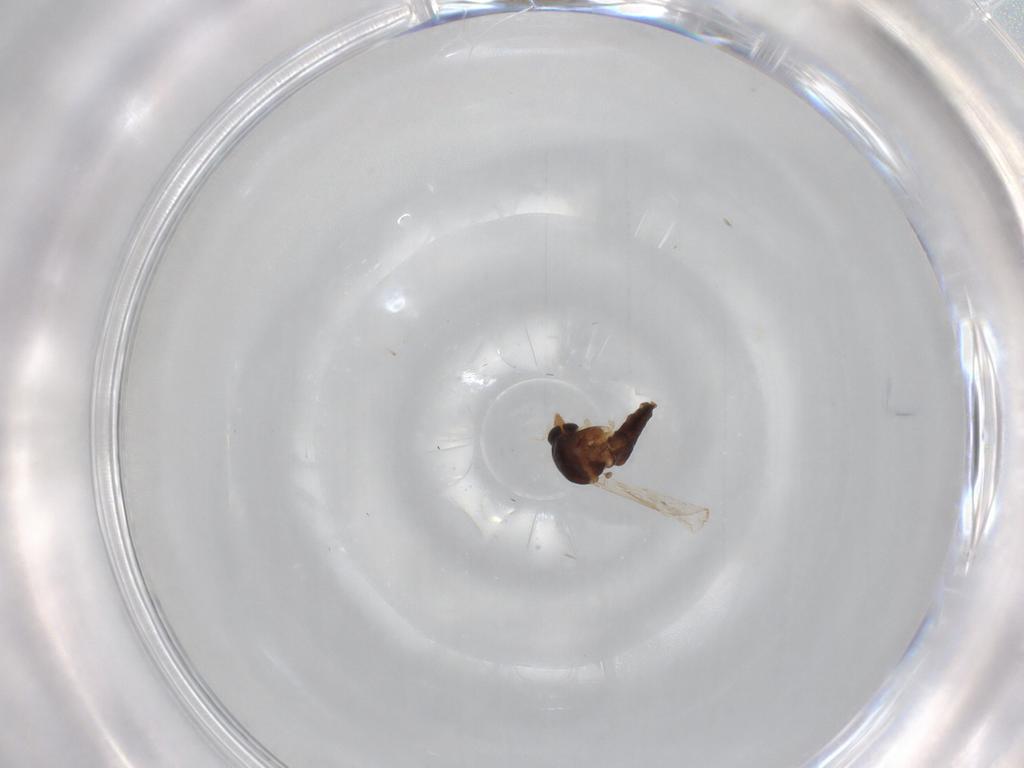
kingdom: Animalia
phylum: Arthropoda
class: Insecta
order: Diptera
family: Ceratopogonidae
